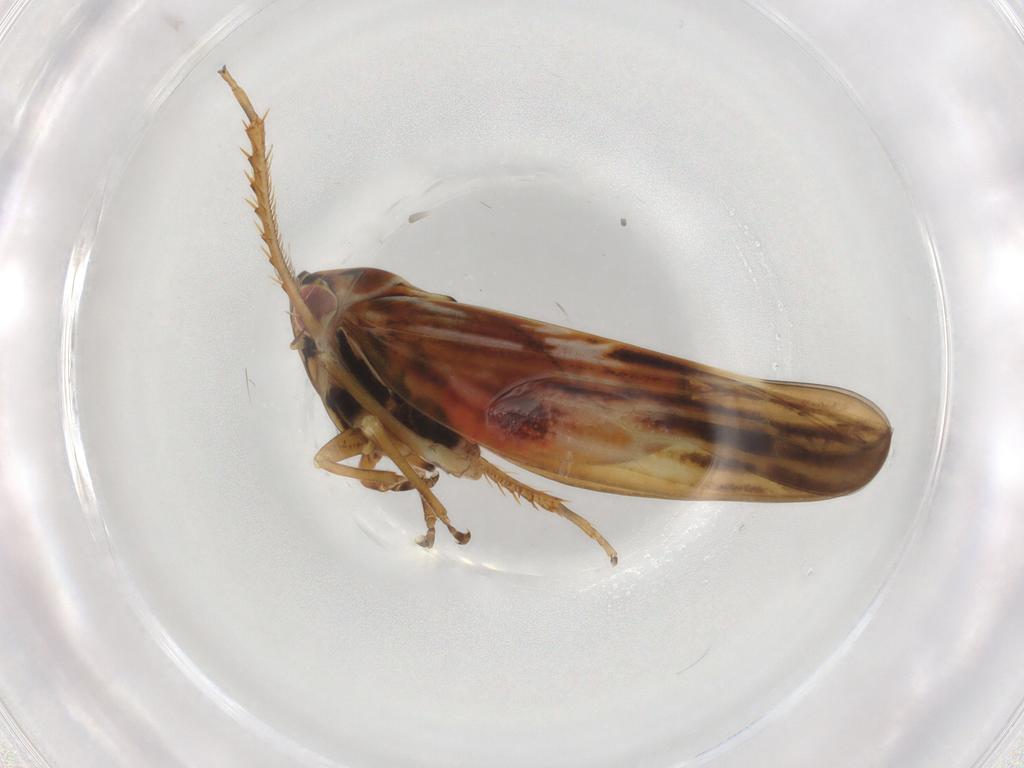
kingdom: Animalia
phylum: Arthropoda
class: Insecta
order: Hemiptera
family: Cicadellidae
